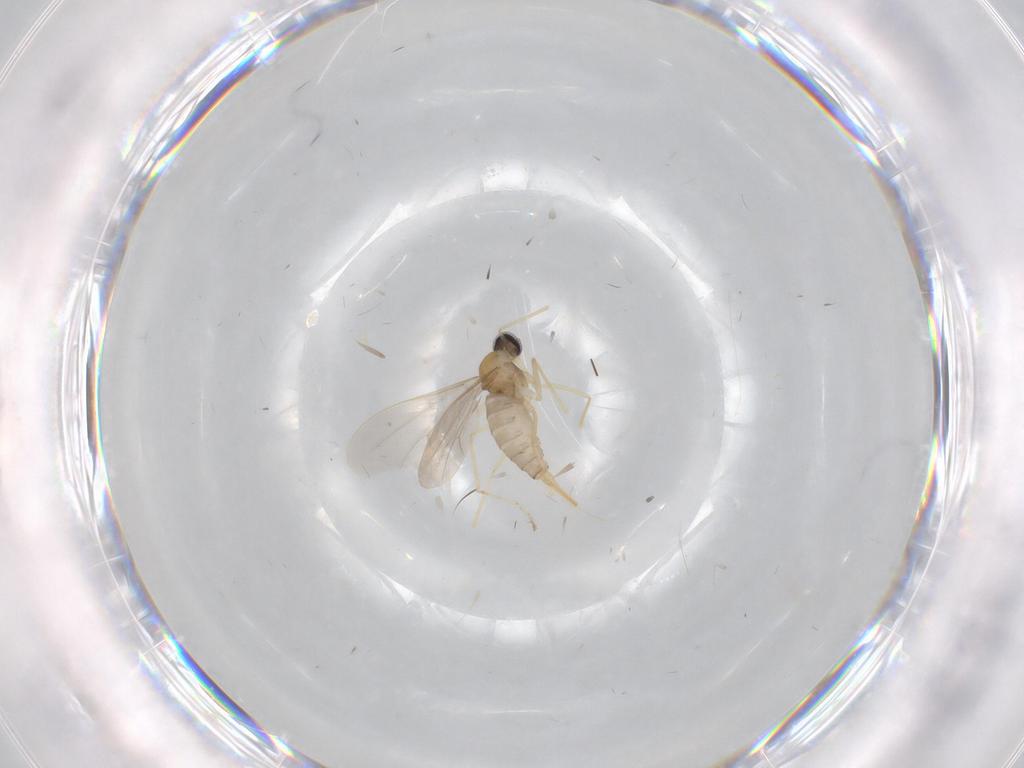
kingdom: Animalia
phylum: Arthropoda
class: Insecta
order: Diptera
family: Cecidomyiidae
